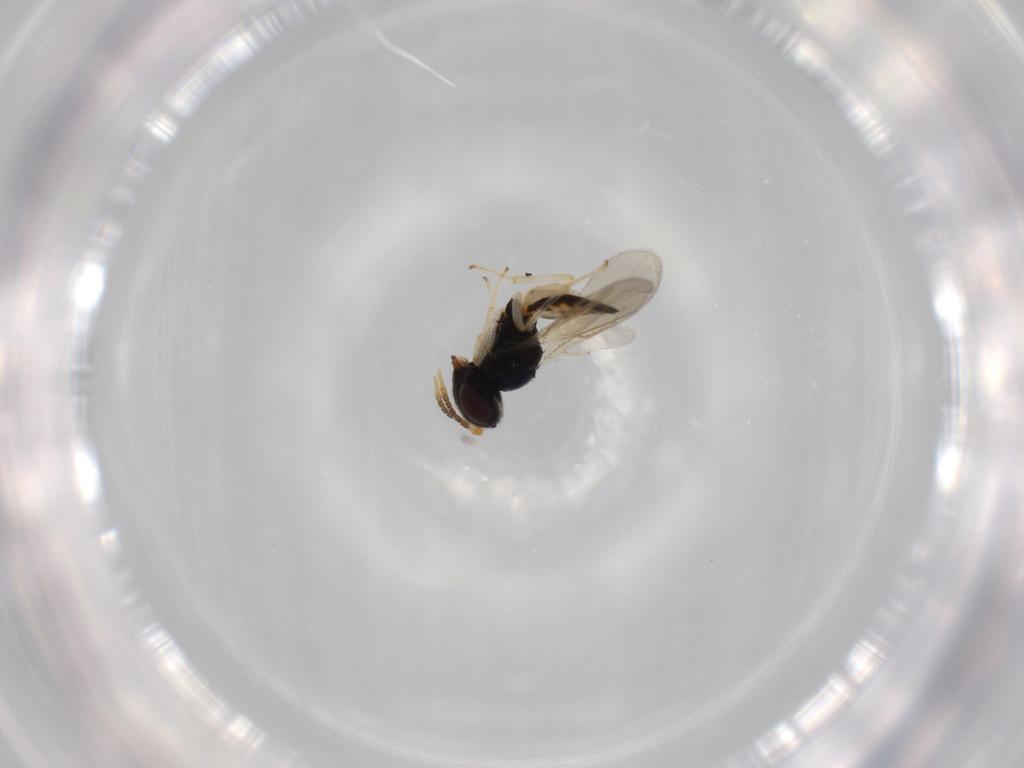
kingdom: Animalia
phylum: Arthropoda
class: Insecta
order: Hymenoptera
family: Pteromalidae
